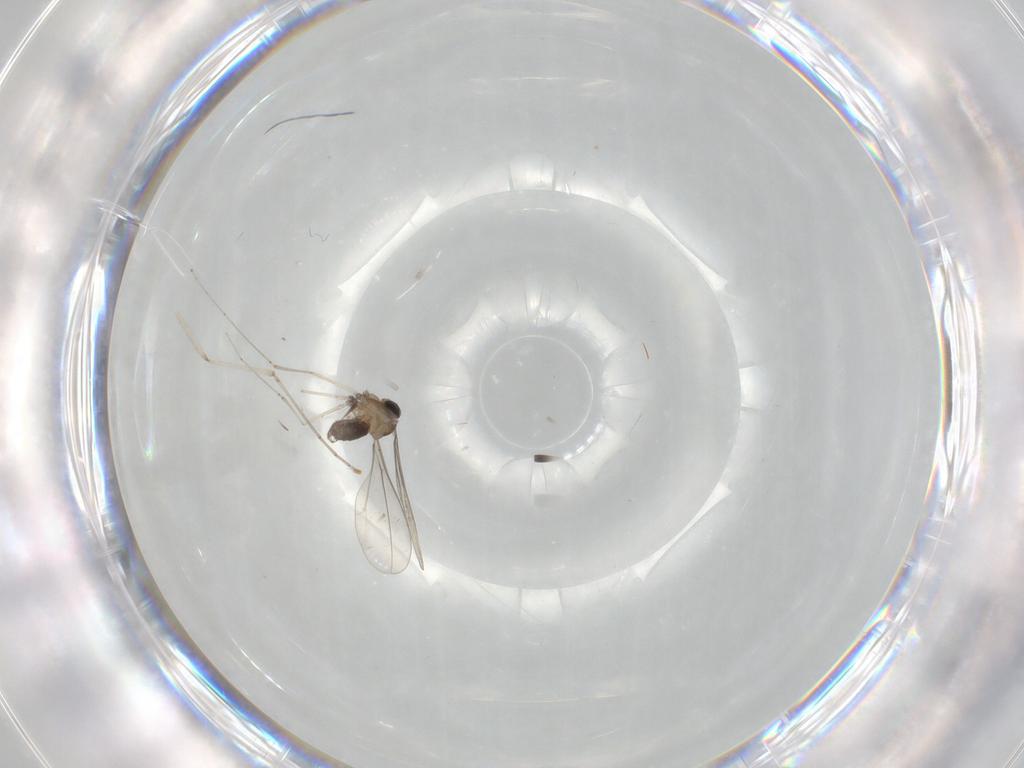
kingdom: Animalia
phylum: Arthropoda
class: Insecta
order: Diptera
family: Cecidomyiidae
